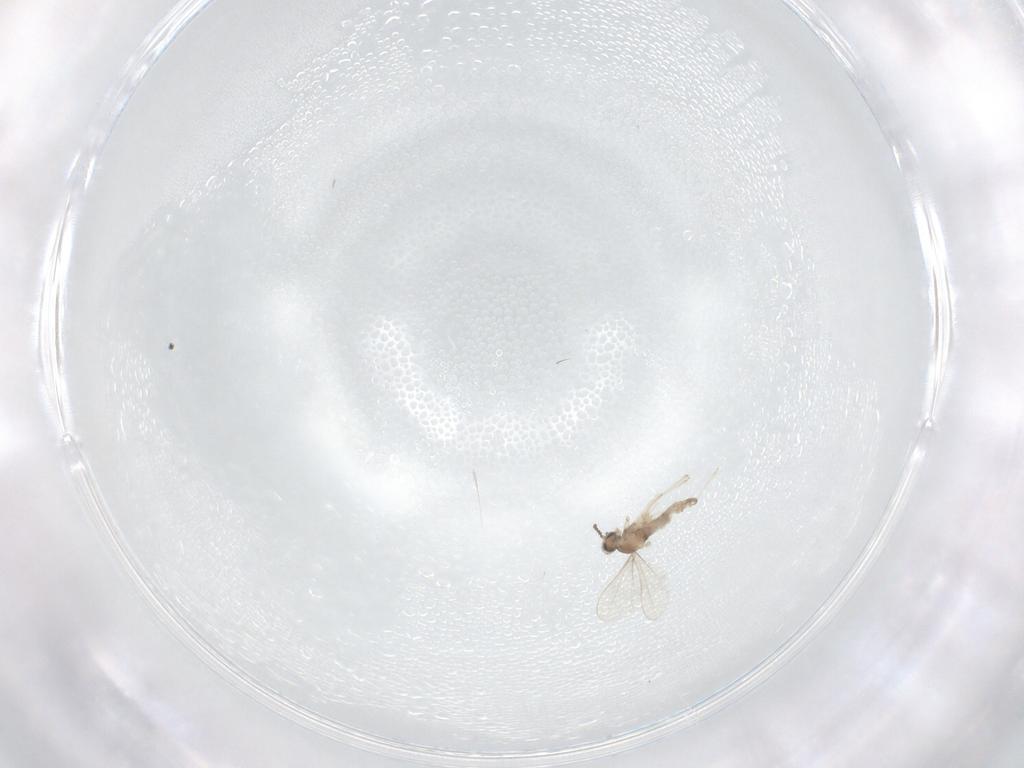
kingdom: Animalia
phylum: Arthropoda
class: Insecta
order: Diptera
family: Cecidomyiidae
